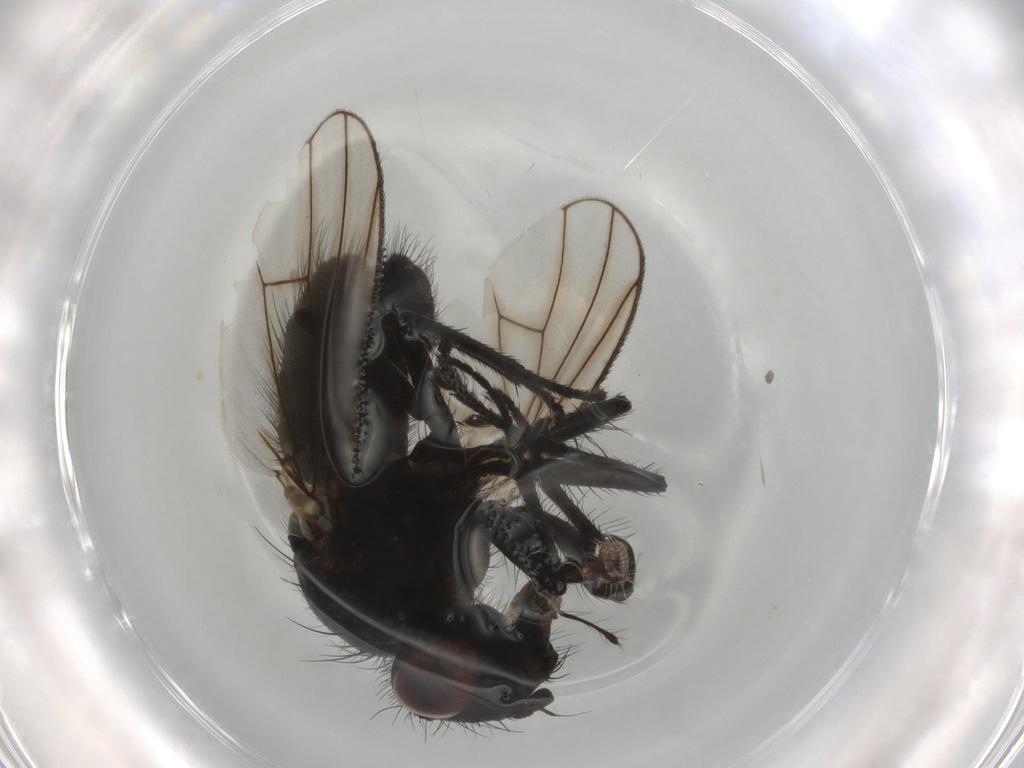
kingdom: Animalia
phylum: Arthropoda
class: Insecta
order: Diptera
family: Muscidae
